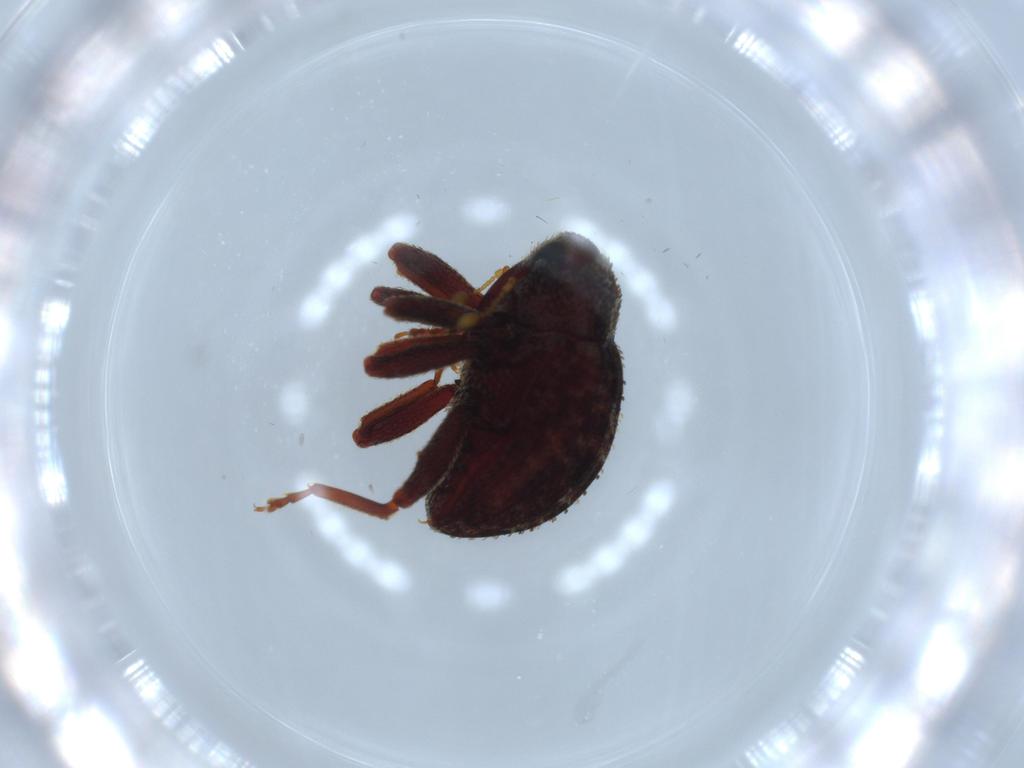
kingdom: Animalia
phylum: Arthropoda
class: Insecta
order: Coleoptera
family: Curculionidae
